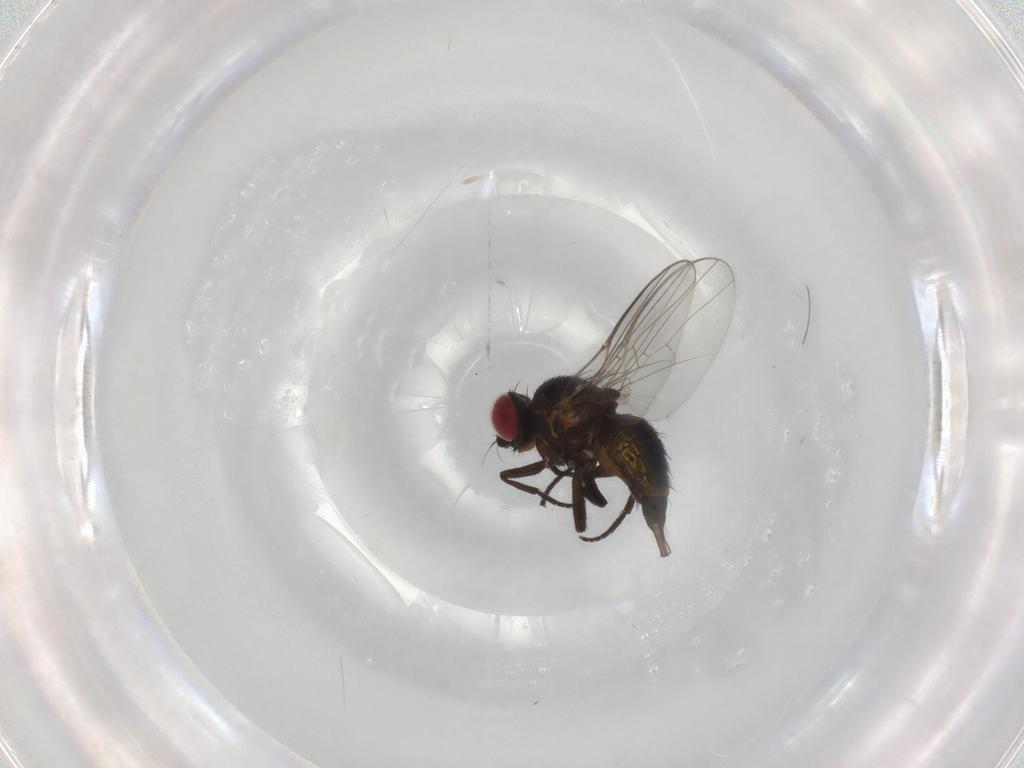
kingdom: Animalia
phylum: Arthropoda
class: Insecta
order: Diptera
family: Agromyzidae
